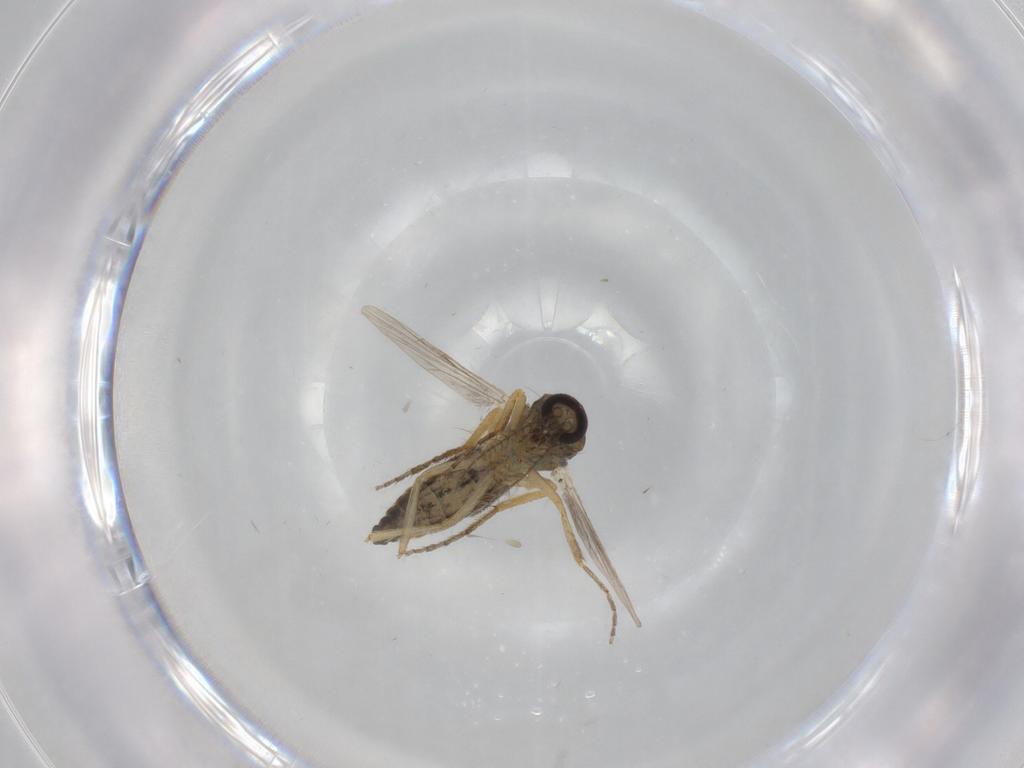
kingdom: Animalia
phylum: Arthropoda
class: Insecta
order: Diptera
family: Ceratopogonidae
